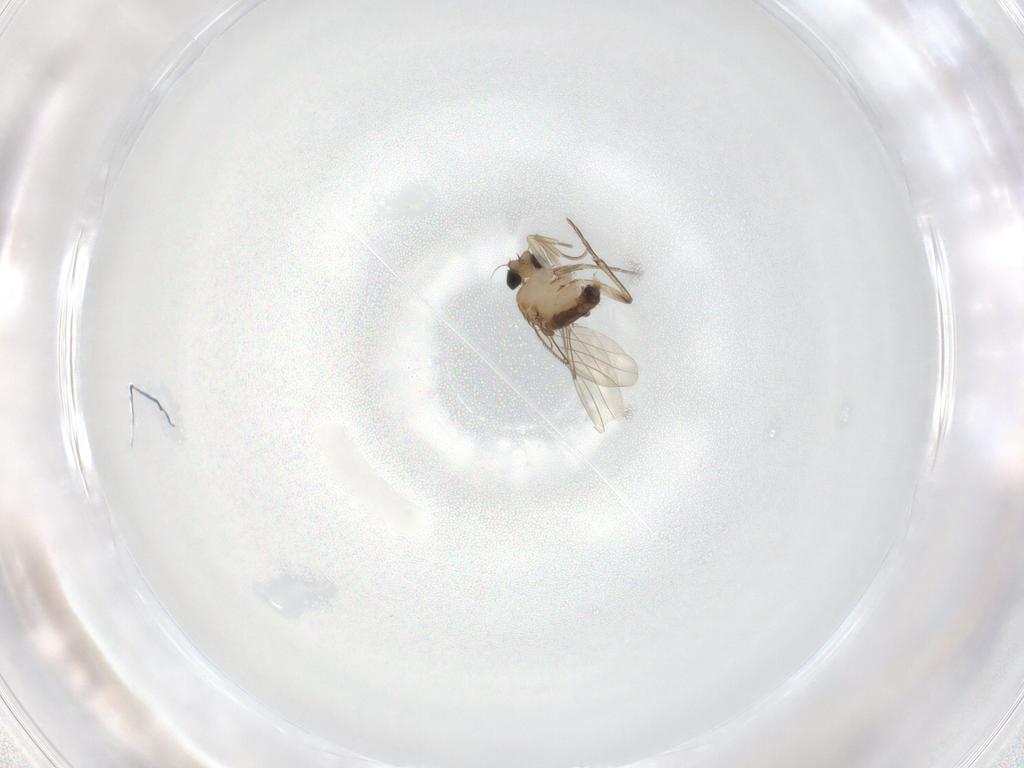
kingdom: Animalia
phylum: Arthropoda
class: Insecta
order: Diptera
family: Phoridae
